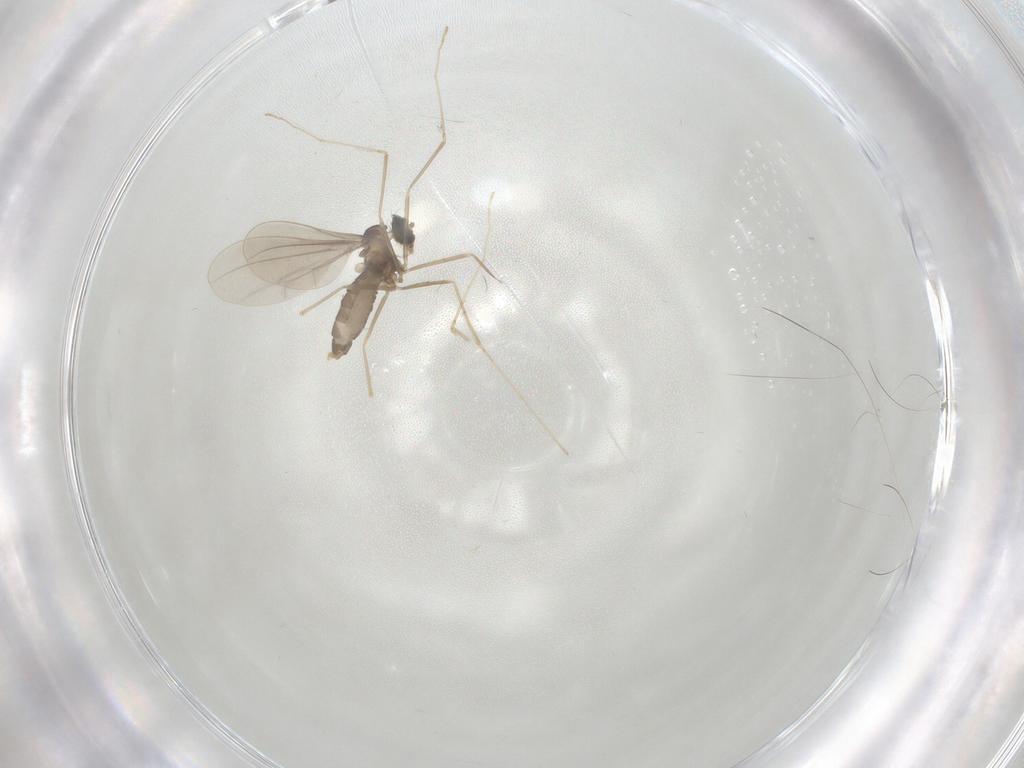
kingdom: Animalia
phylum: Arthropoda
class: Insecta
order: Diptera
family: Cecidomyiidae
